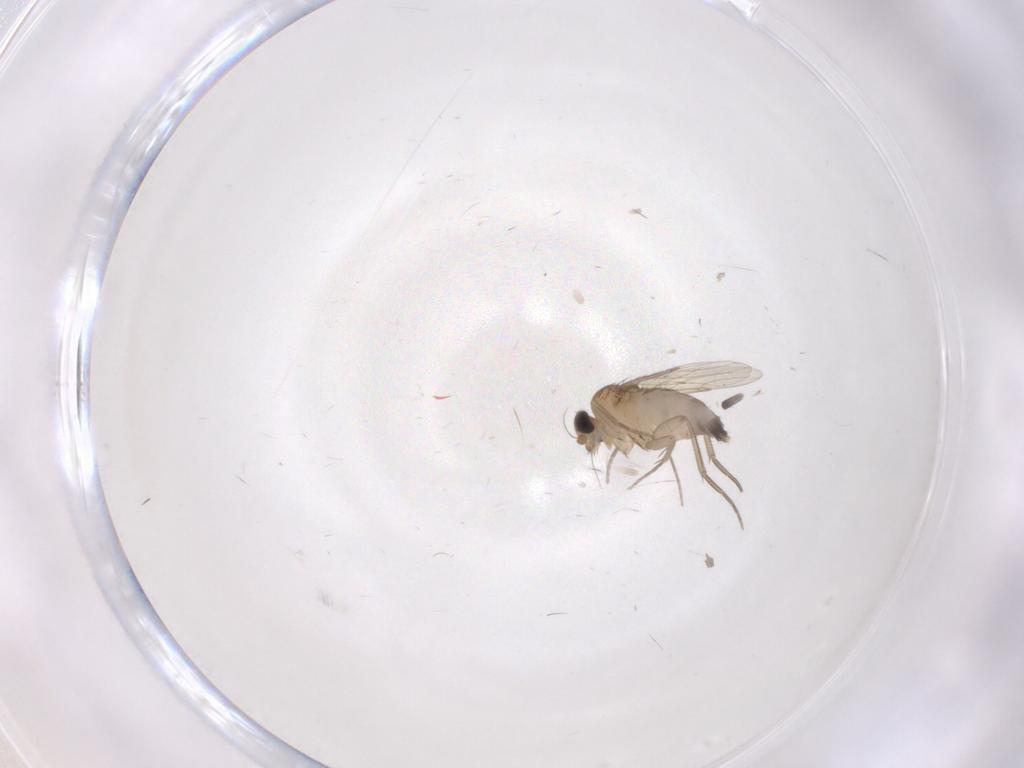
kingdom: Animalia
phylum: Arthropoda
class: Insecta
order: Diptera
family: Phoridae
